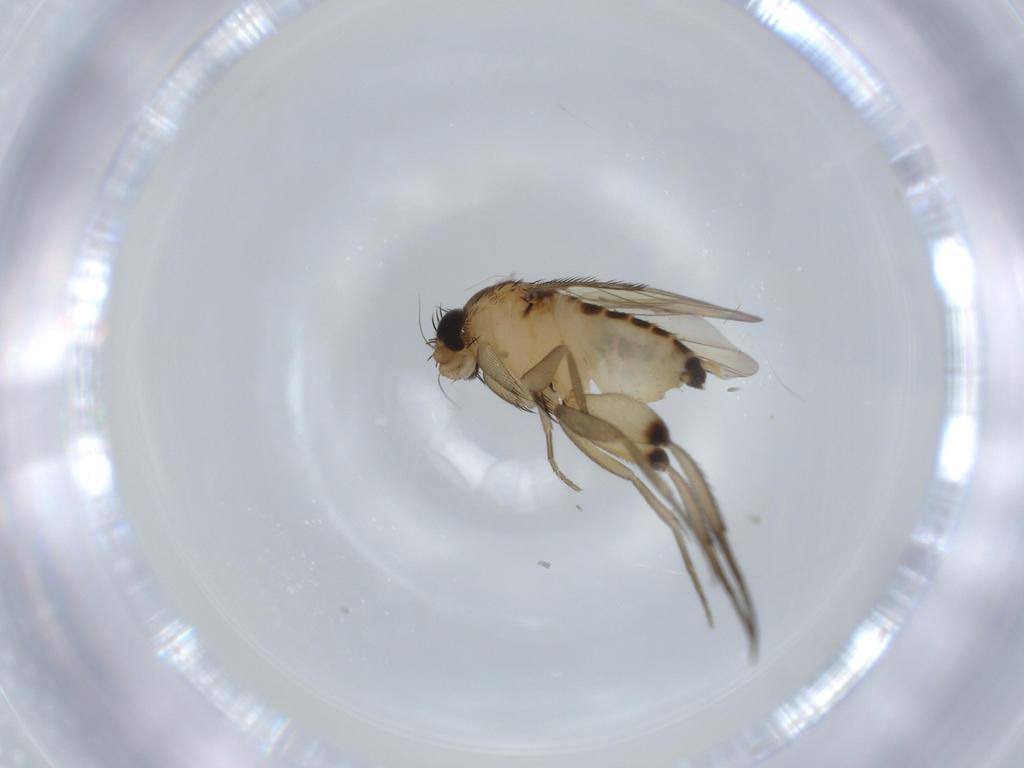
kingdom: Animalia
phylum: Arthropoda
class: Insecta
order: Diptera
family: Phoridae
